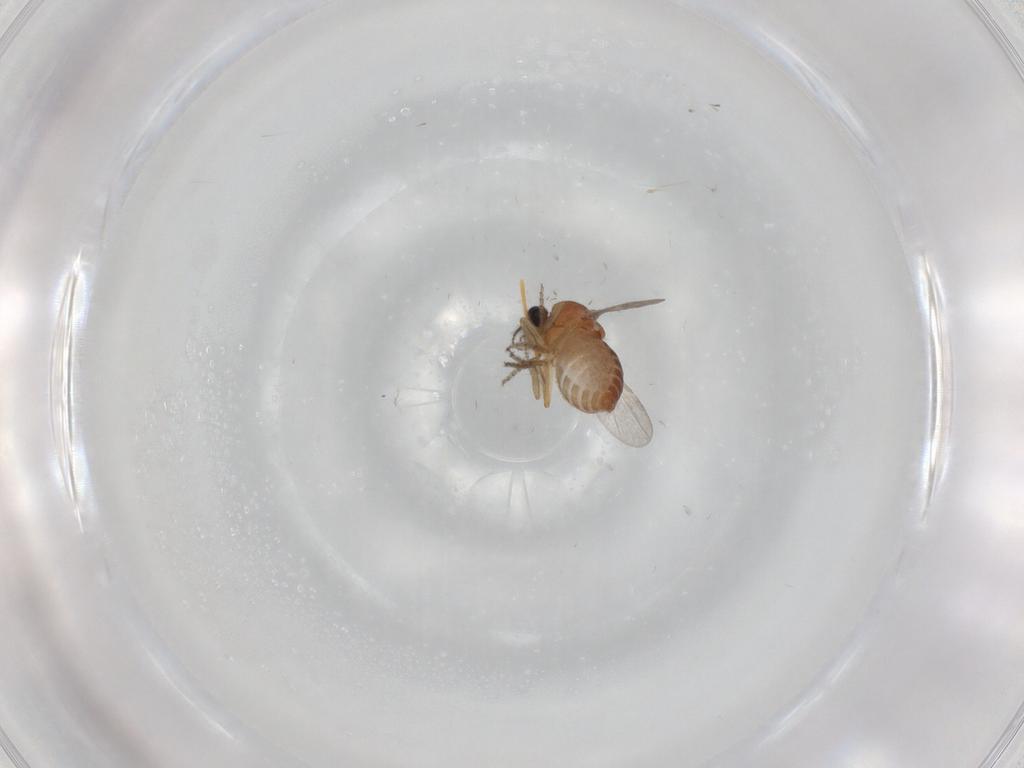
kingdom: Animalia
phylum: Arthropoda
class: Insecta
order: Diptera
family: Ceratopogonidae
